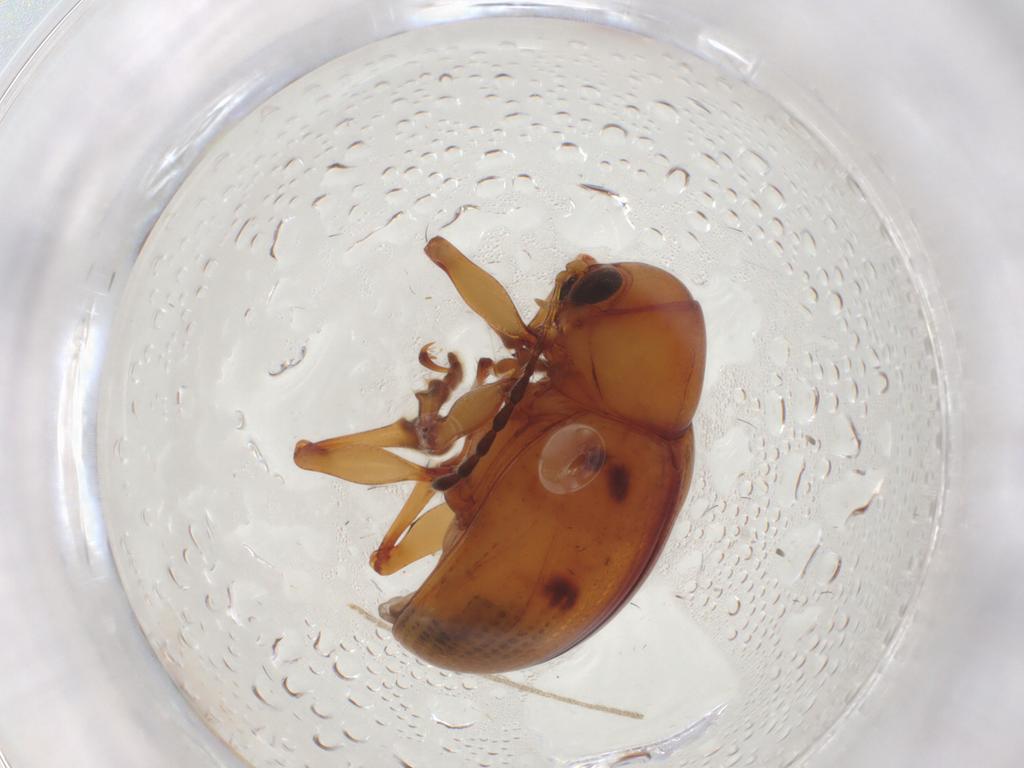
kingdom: Animalia
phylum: Arthropoda
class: Insecta
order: Coleoptera
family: Chrysomelidae
